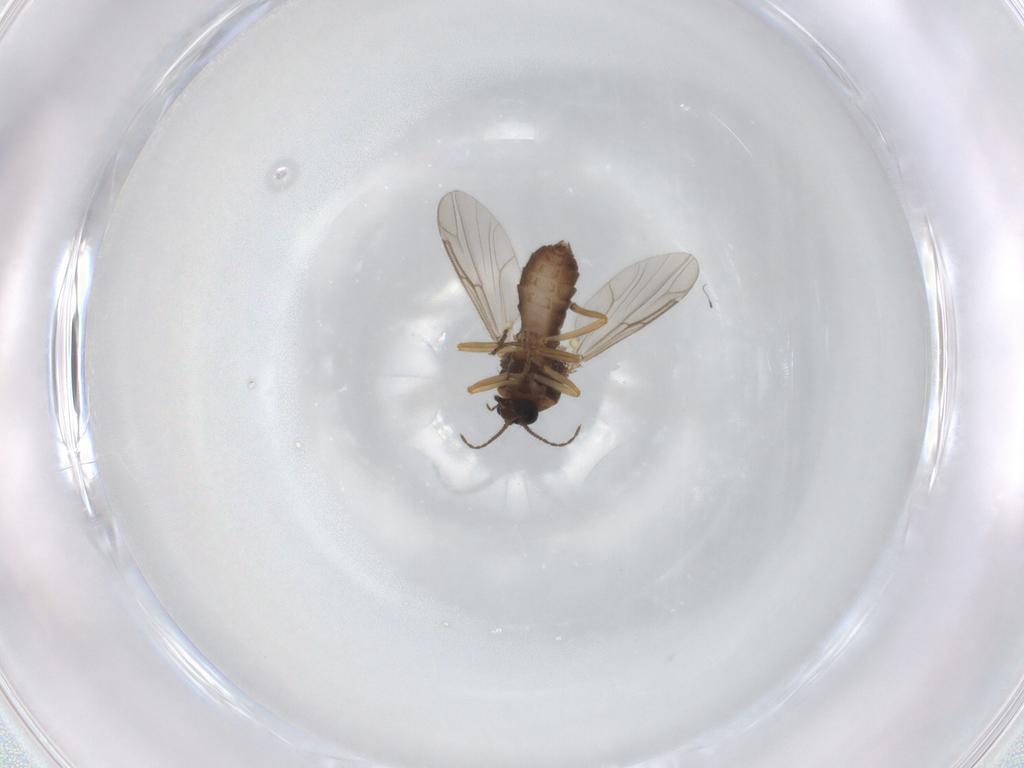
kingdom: Animalia
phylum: Arthropoda
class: Insecta
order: Diptera
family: Ceratopogonidae
